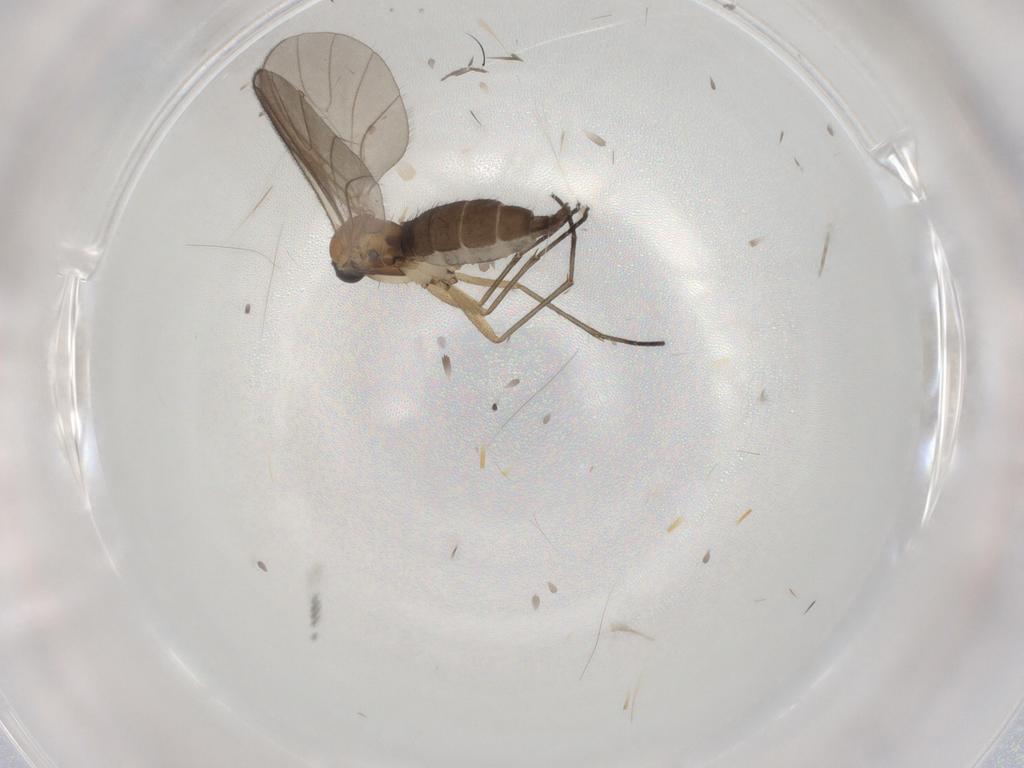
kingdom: Animalia
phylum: Arthropoda
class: Insecta
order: Diptera
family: Sciaridae
